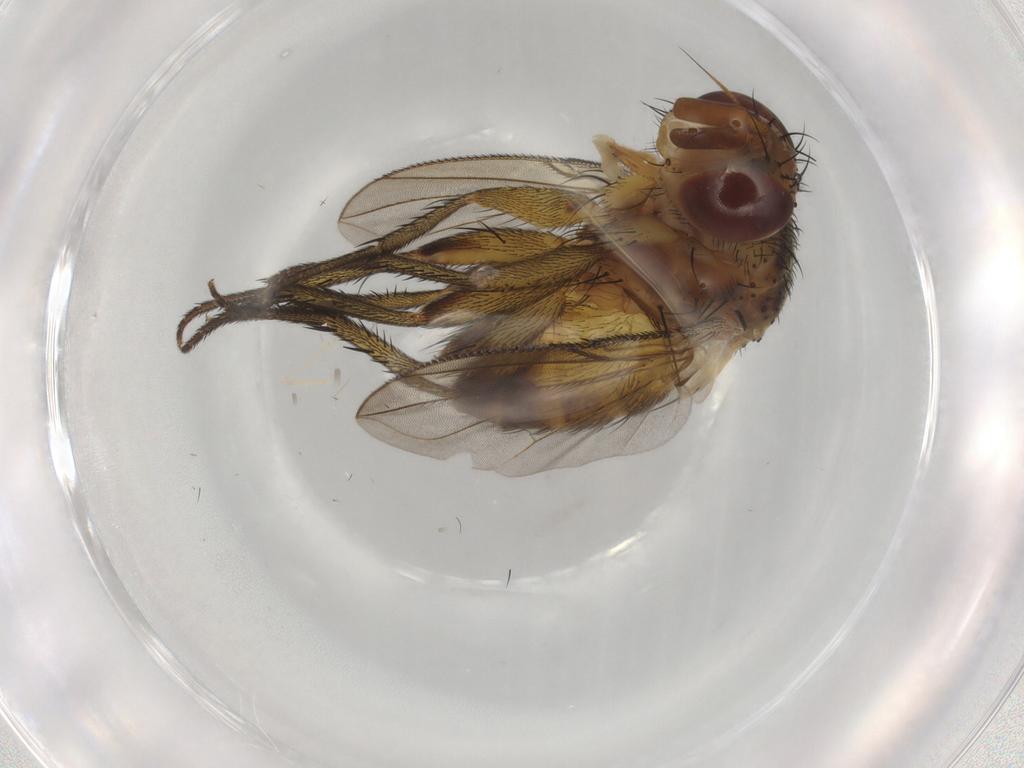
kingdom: Animalia
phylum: Arthropoda
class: Insecta
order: Diptera
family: Tachinidae
